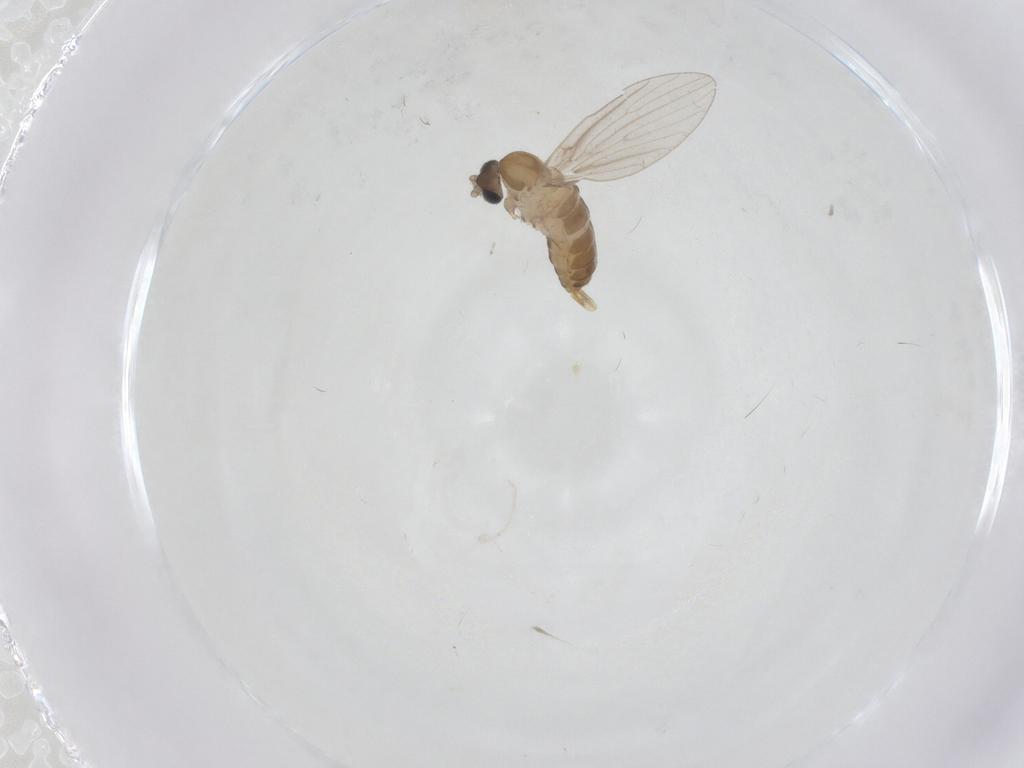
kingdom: Animalia
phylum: Arthropoda
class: Insecta
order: Diptera
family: Psychodidae
